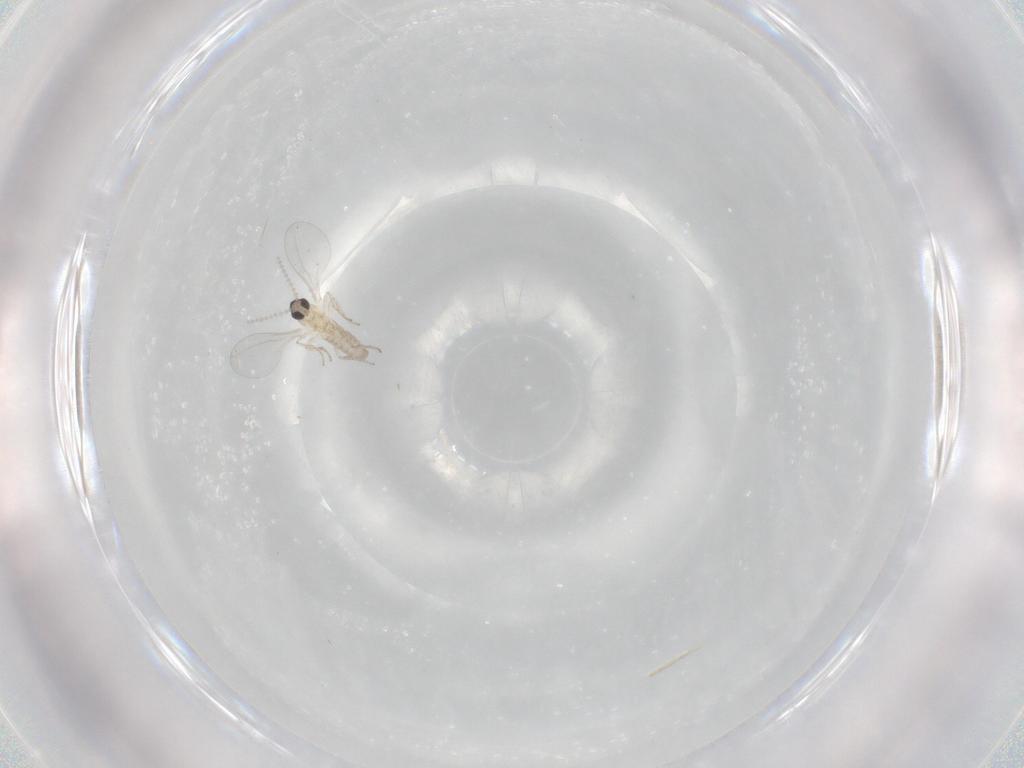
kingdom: Animalia
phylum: Arthropoda
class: Insecta
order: Diptera
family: Cecidomyiidae
